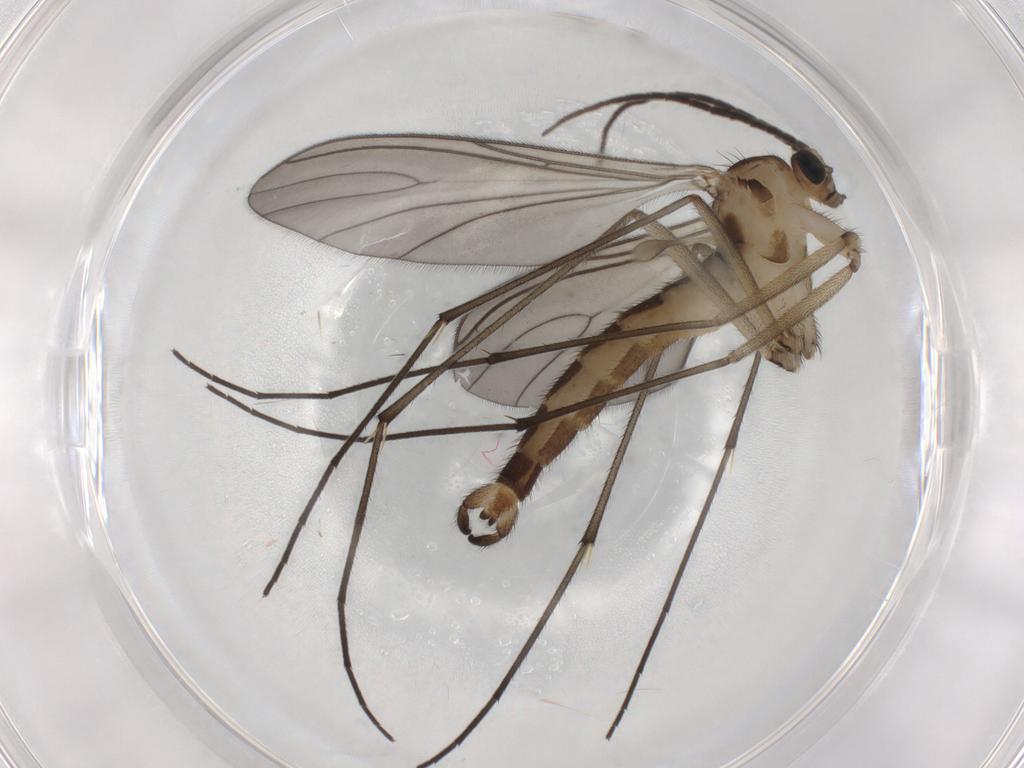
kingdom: Animalia
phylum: Arthropoda
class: Insecta
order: Diptera
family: Sciaridae
